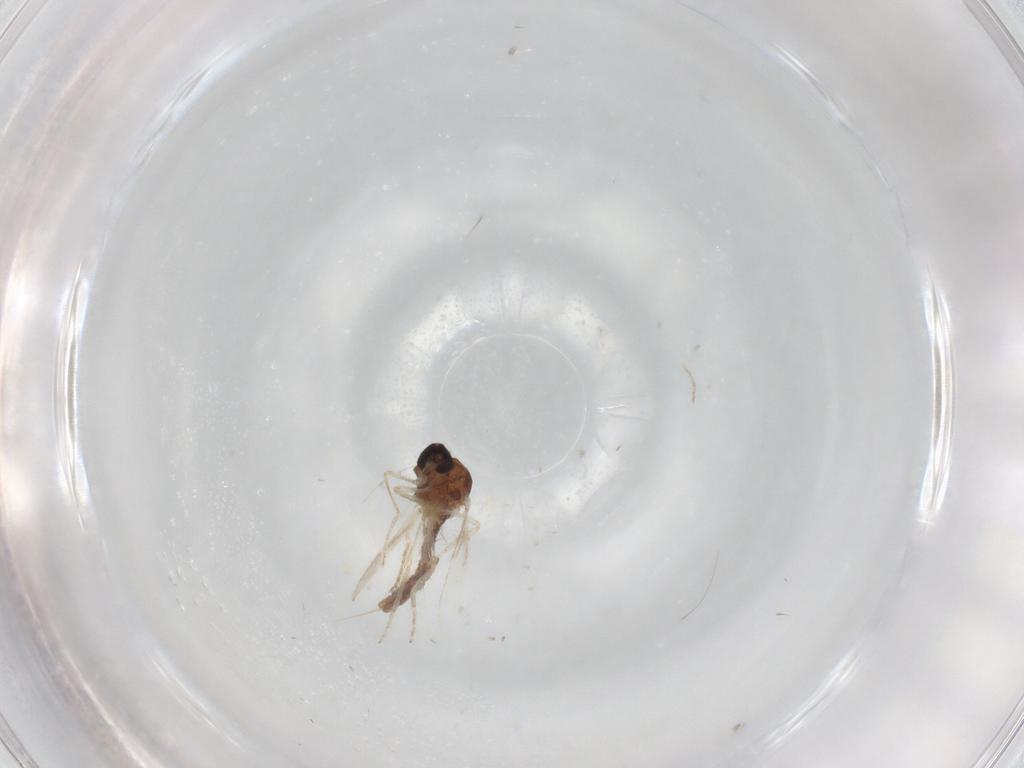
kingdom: Animalia
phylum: Arthropoda
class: Insecta
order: Diptera
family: Ceratopogonidae
